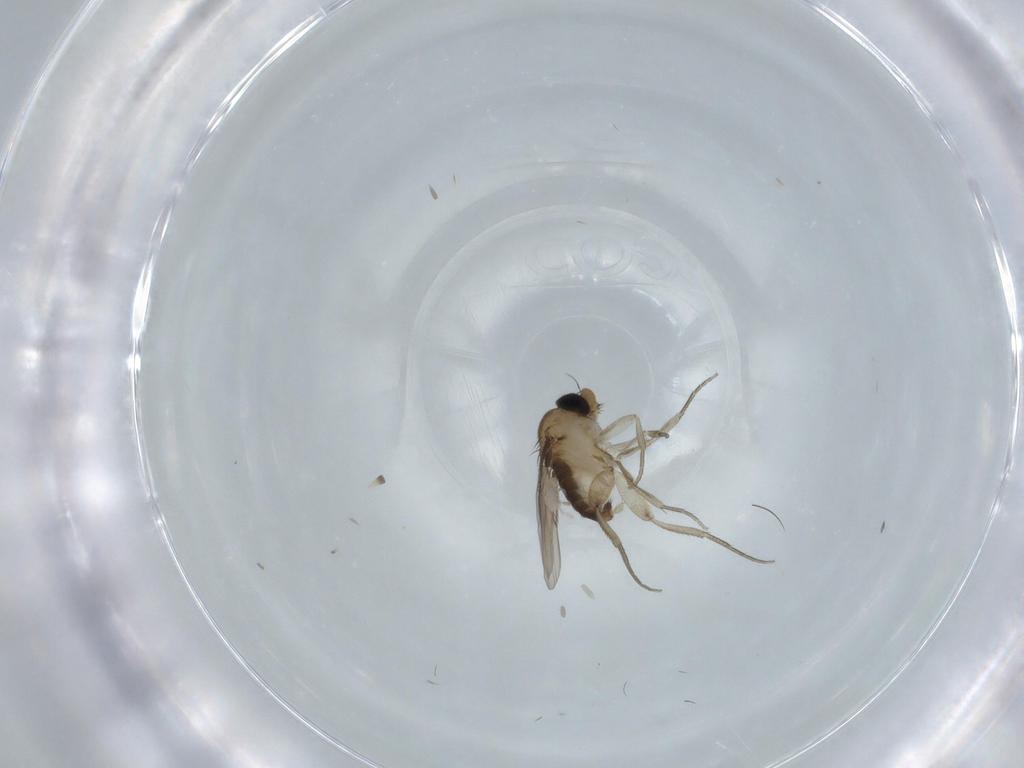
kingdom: Animalia
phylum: Arthropoda
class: Insecta
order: Diptera
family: Phoridae
